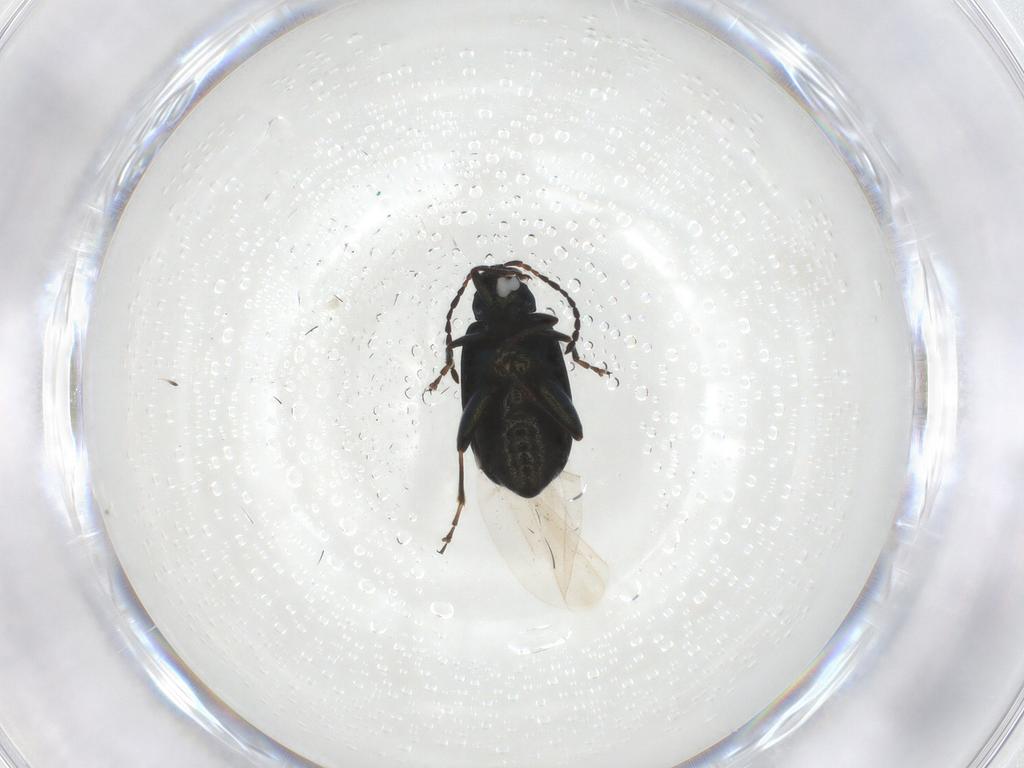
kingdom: Animalia
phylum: Arthropoda
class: Insecta
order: Coleoptera
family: Chrysomelidae
